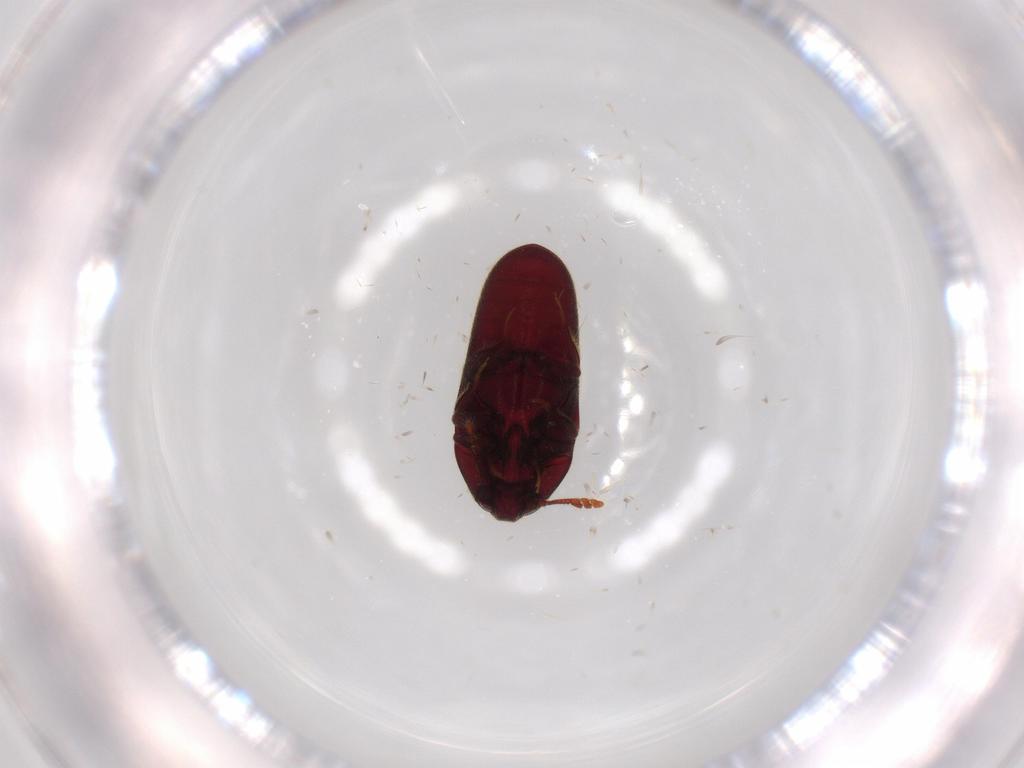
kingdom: Animalia
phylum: Arthropoda
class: Insecta
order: Coleoptera
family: Throscidae
